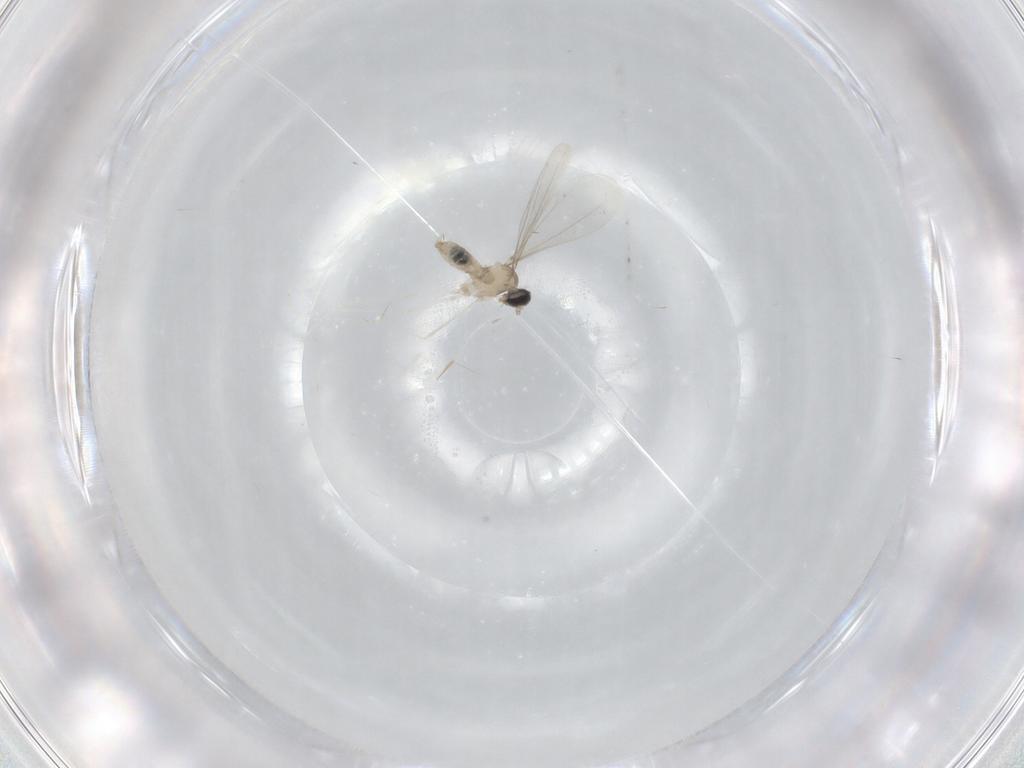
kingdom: Animalia
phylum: Arthropoda
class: Insecta
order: Diptera
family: Cecidomyiidae
